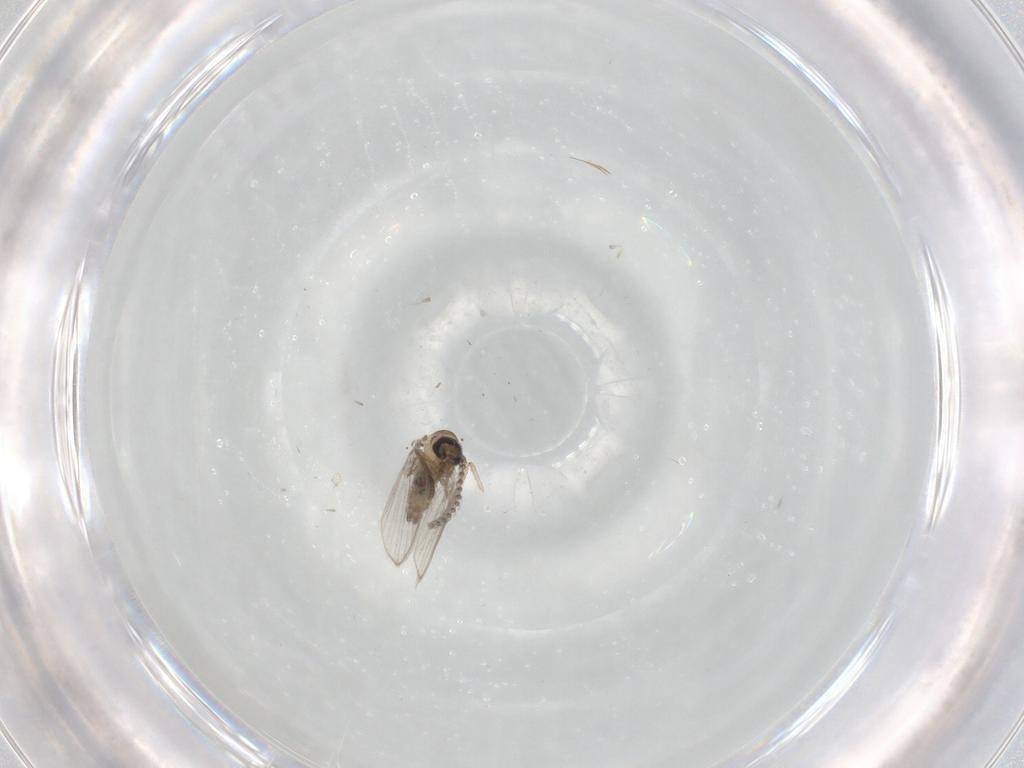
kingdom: Animalia
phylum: Arthropoda
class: Insecta
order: Diptera
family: Psychodidae
